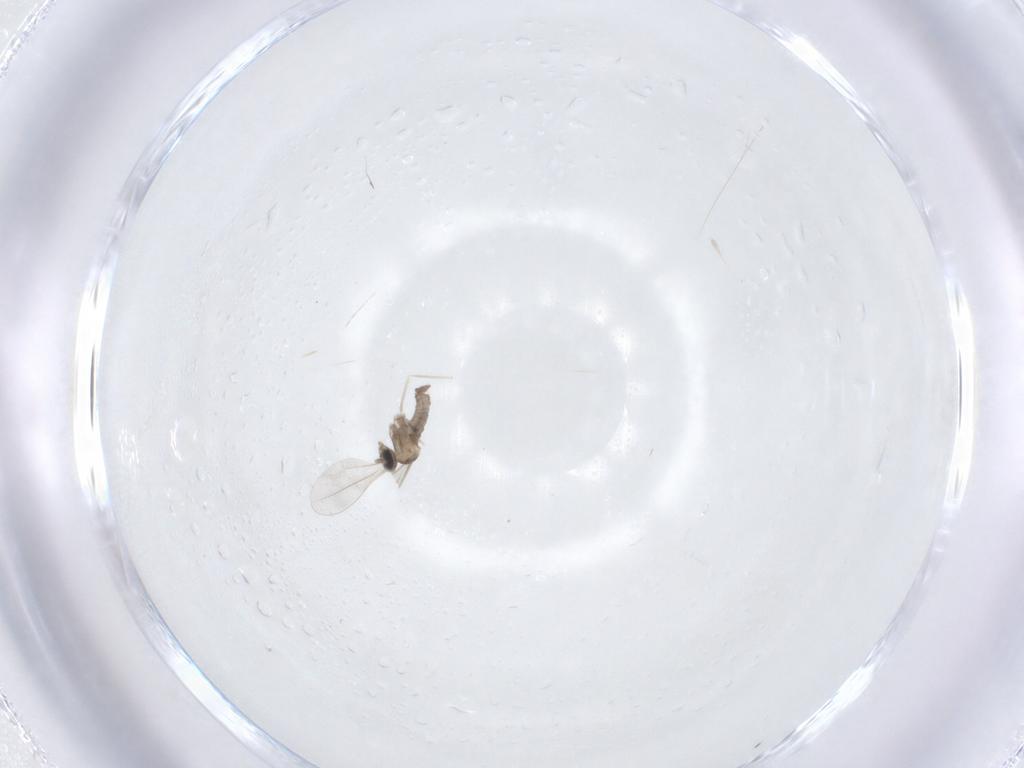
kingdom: Animalia
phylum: Arthropoda
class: Insecta
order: Diptera
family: Cecidomyiidae
